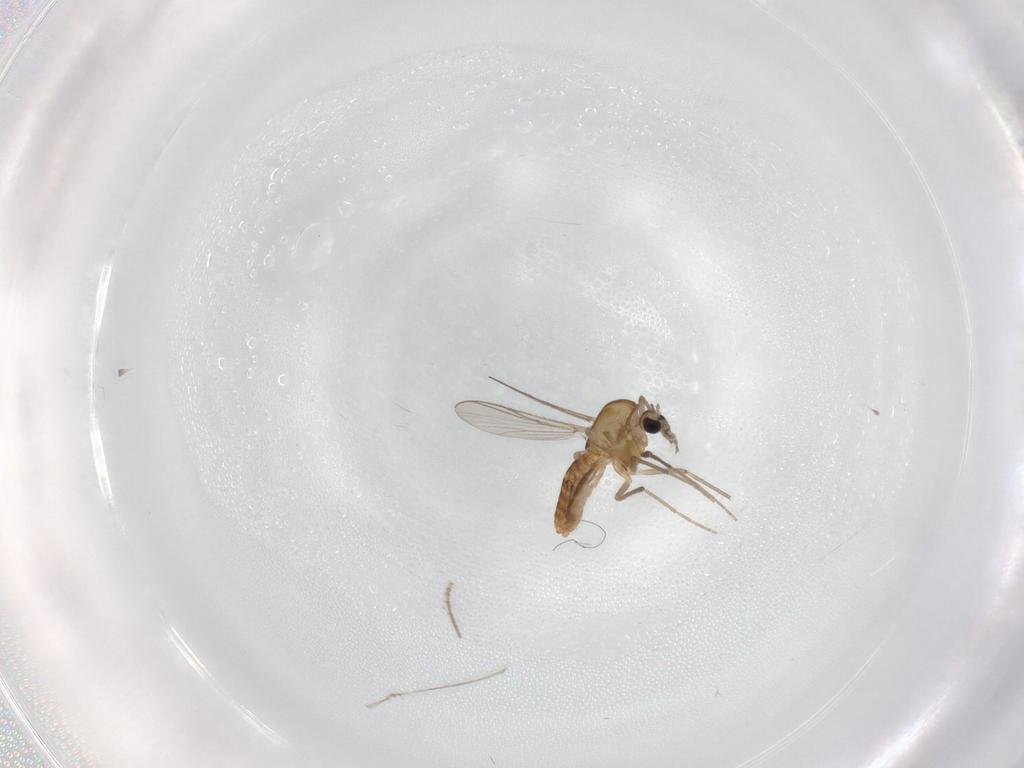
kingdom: Animalia
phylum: Arthropoda
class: Insecta
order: Diptera
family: Chironomidae
